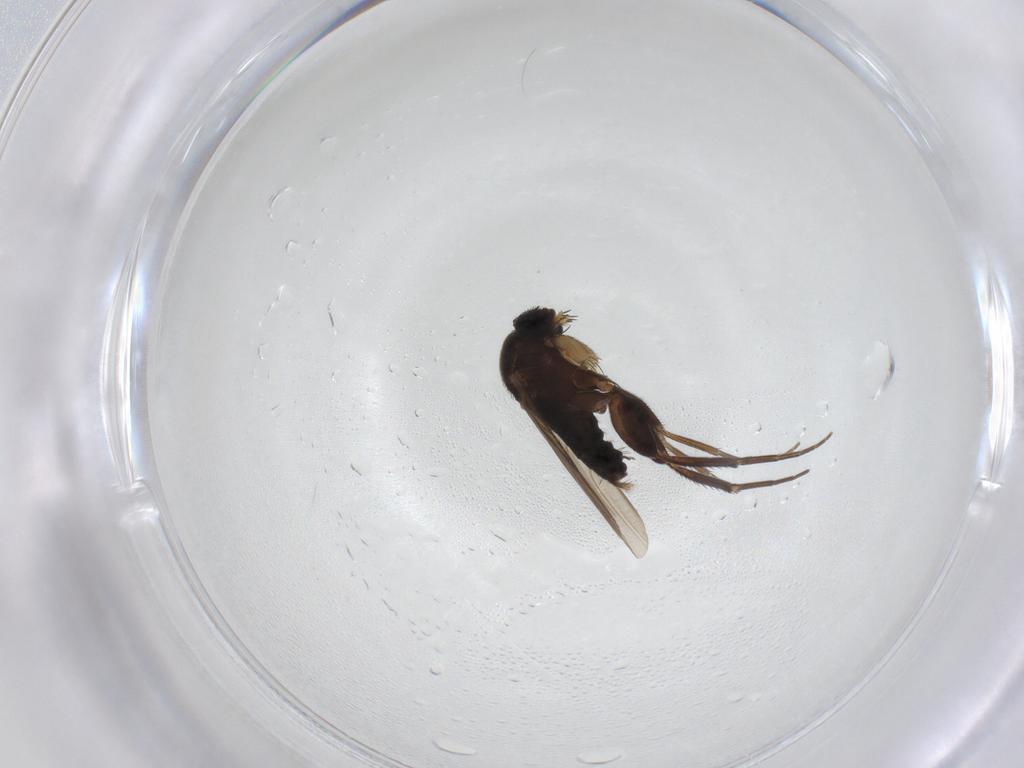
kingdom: Animalia
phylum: Arthropoda
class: Insecta
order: Diptera
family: Phoridae
